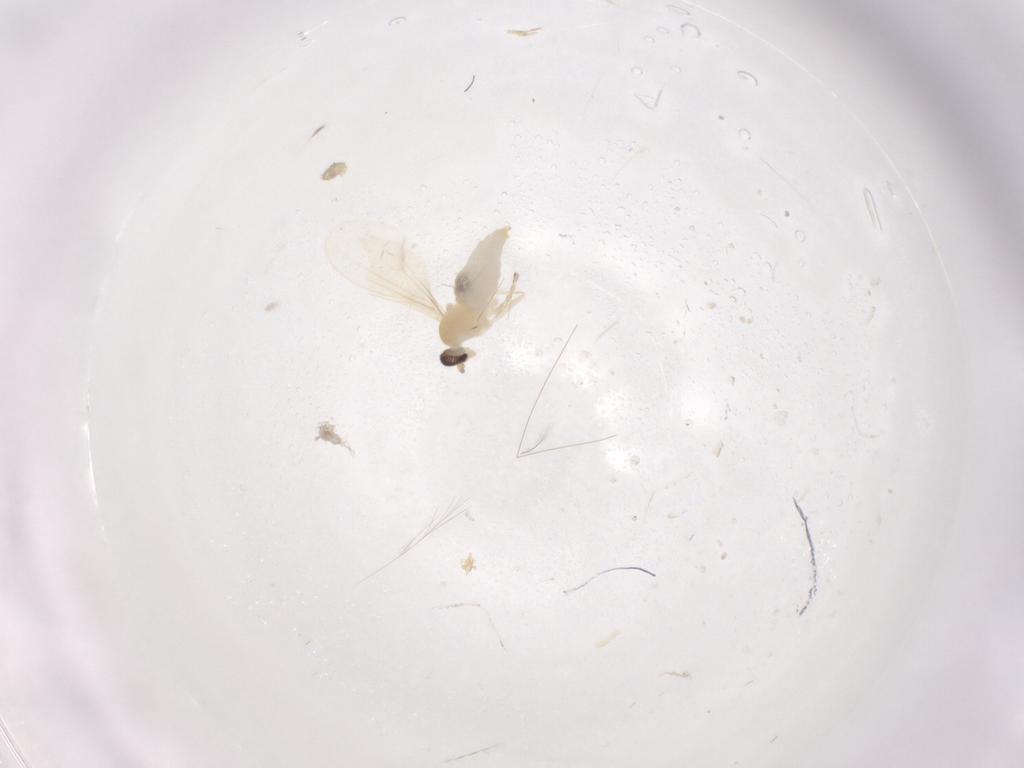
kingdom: Animalia
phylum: Arthropoda
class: Insecta
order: Diptera
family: Cecidomyiidae
